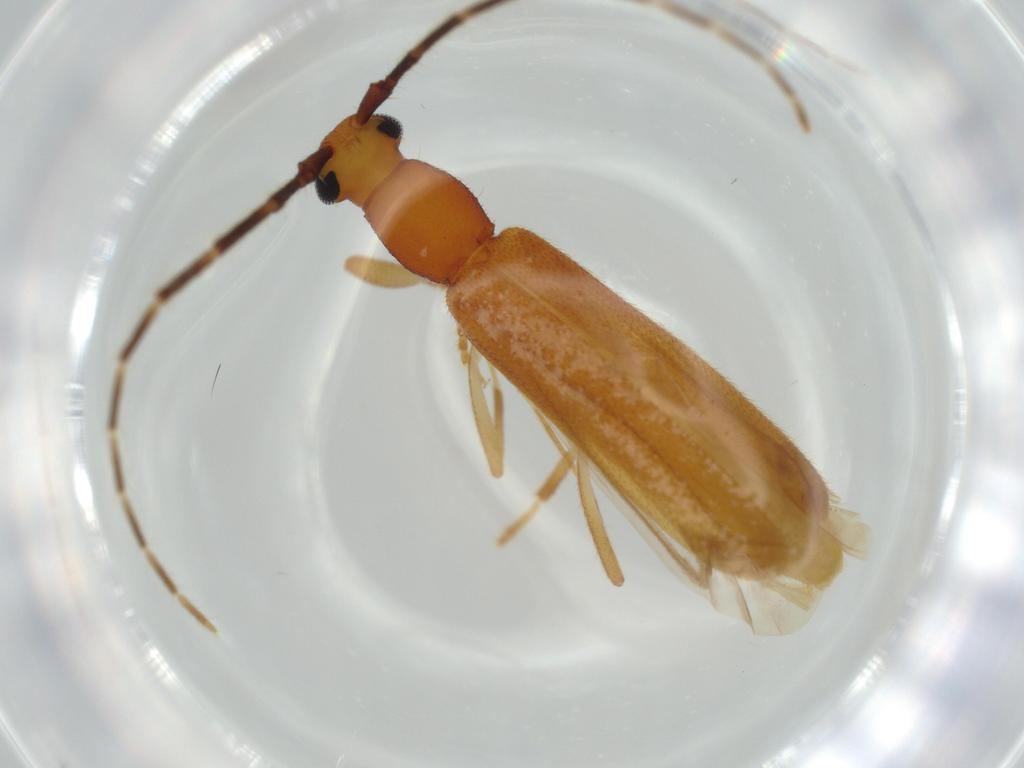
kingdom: Animalia
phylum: Arthropoda
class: Insecta
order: Coleoptera
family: Cerambycidae
